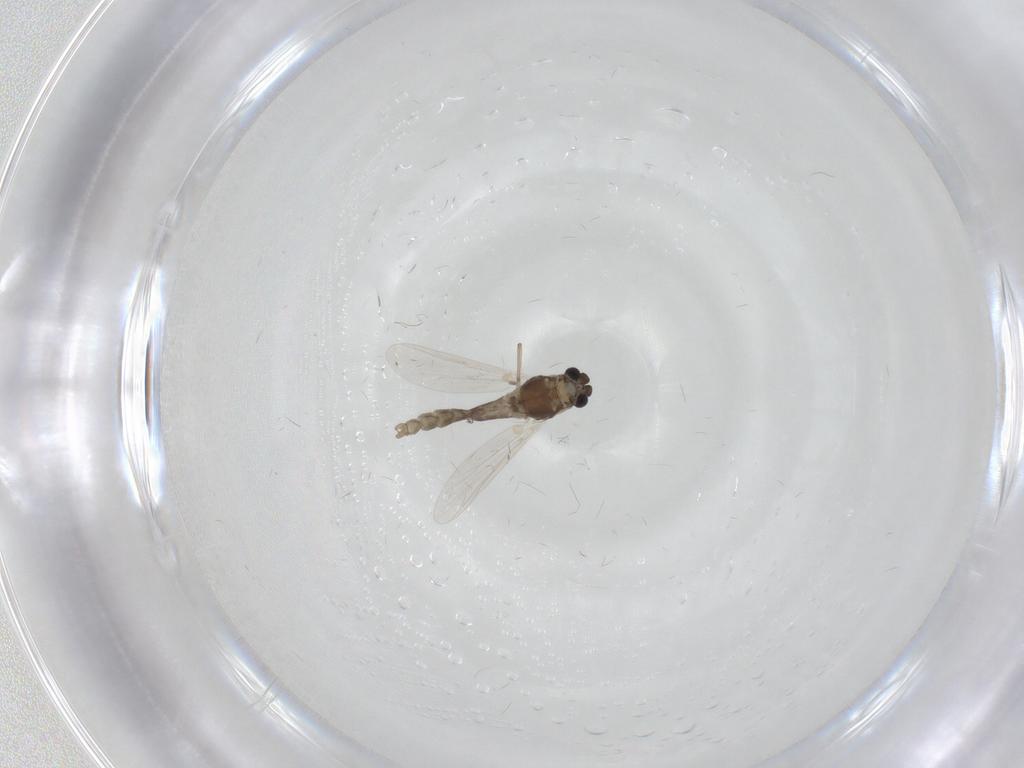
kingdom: Animalia
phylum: Arthropoda
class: Insecta
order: Diptera
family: Chironomidae
